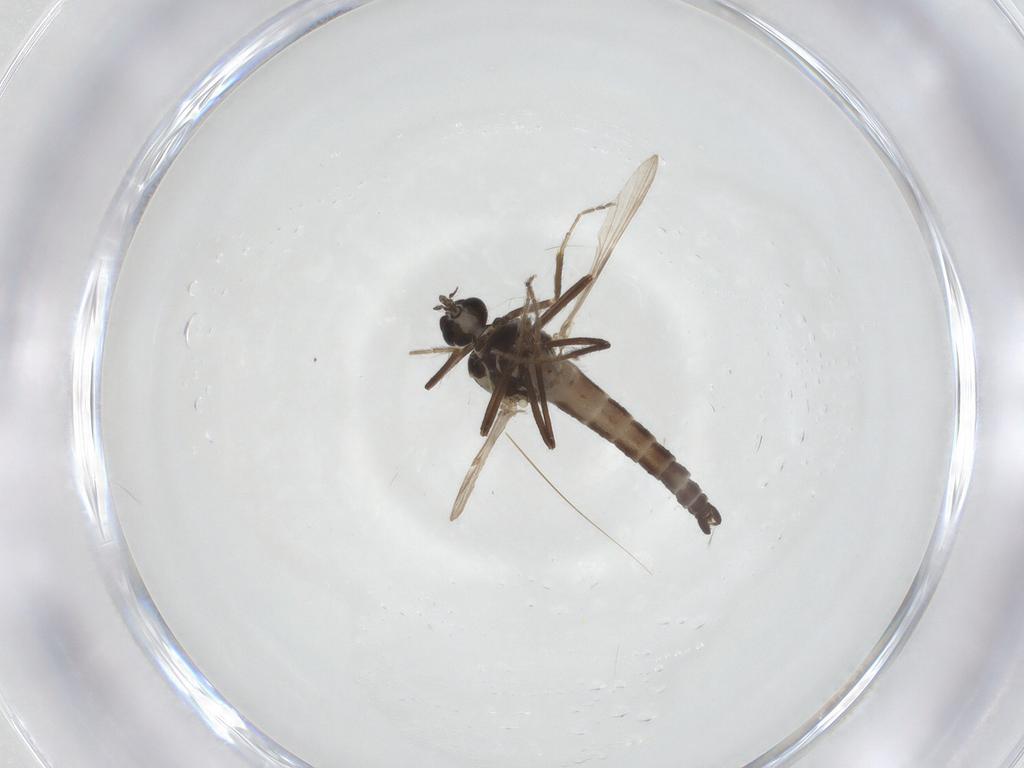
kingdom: Animalia
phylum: Arthropoda
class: Insecta
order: Diptera
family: Ceratopogonidae
